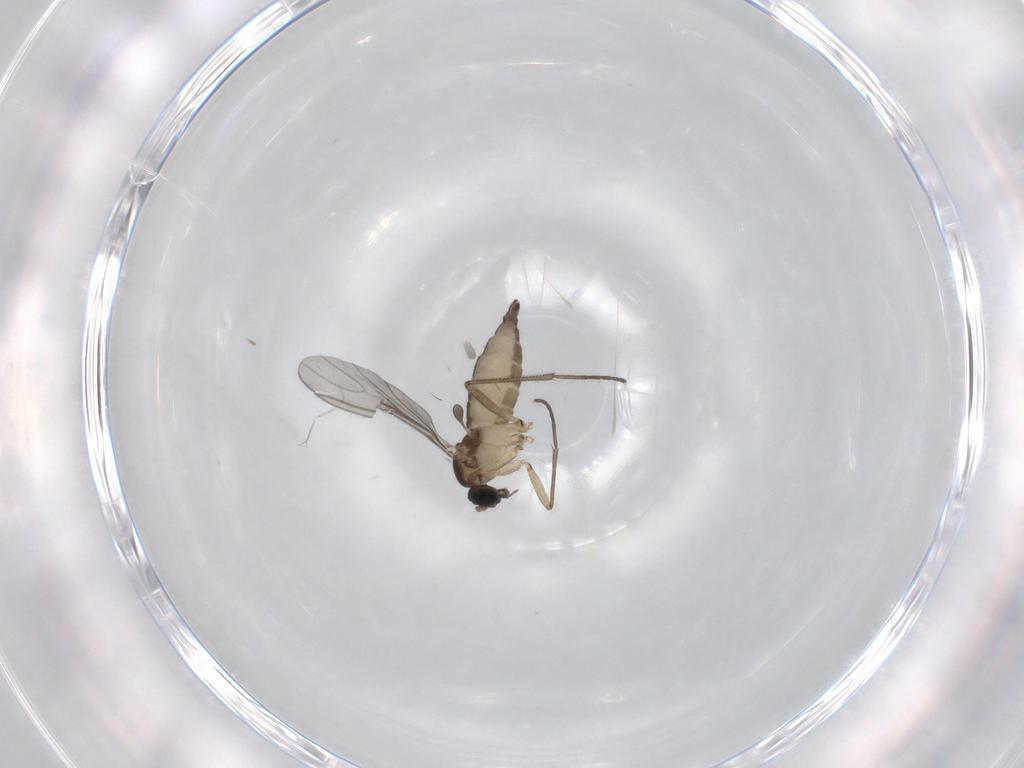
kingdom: Animalia
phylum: Arthropoda
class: Insecta
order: Diptera
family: Sciaridae
